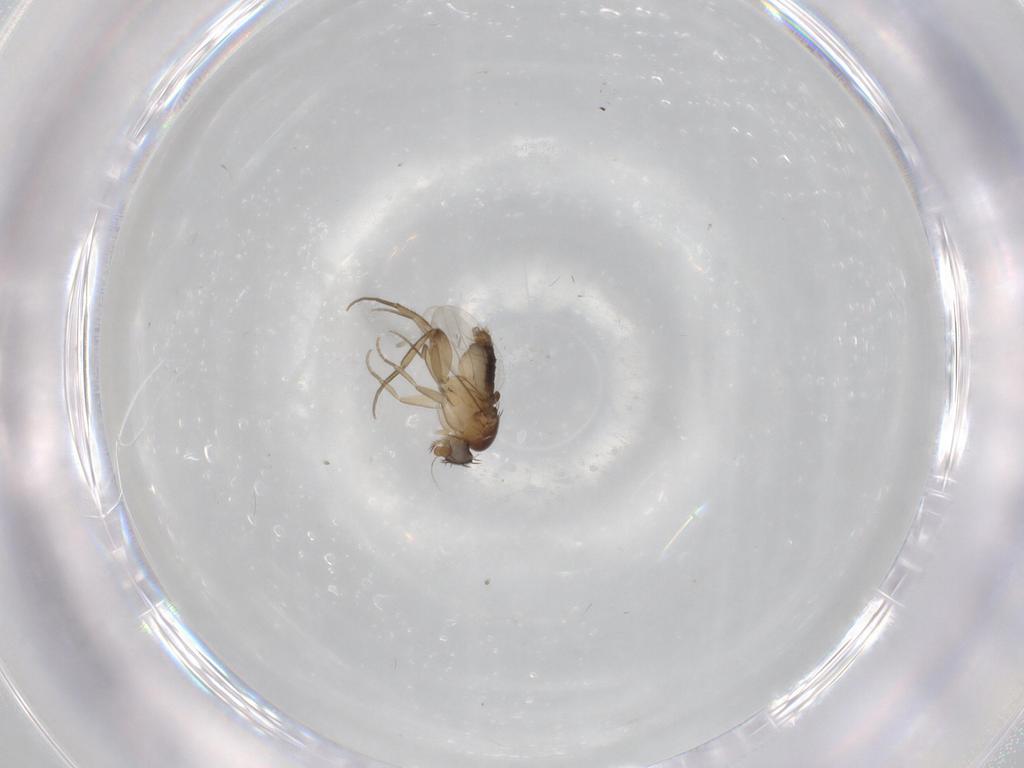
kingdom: Animalia
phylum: Arthropoda
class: Insecta
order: Diptera
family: Phoridae
